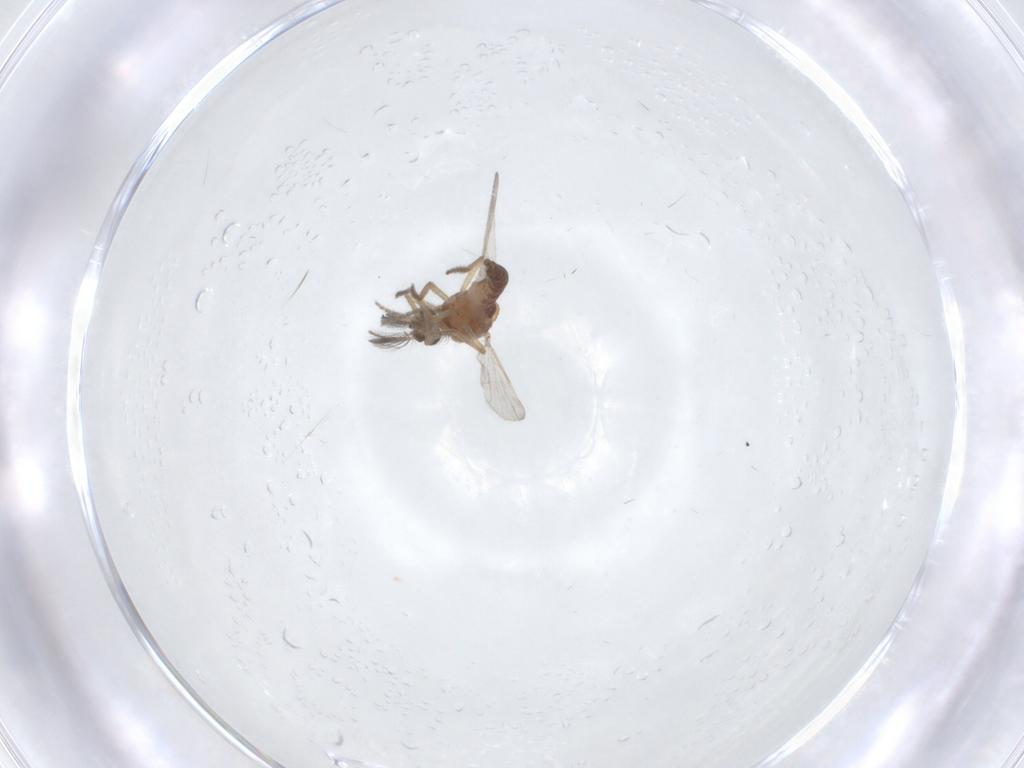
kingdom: Animalia
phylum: Arthropoda
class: Insecta
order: Diptera
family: Ceratopogonidae
